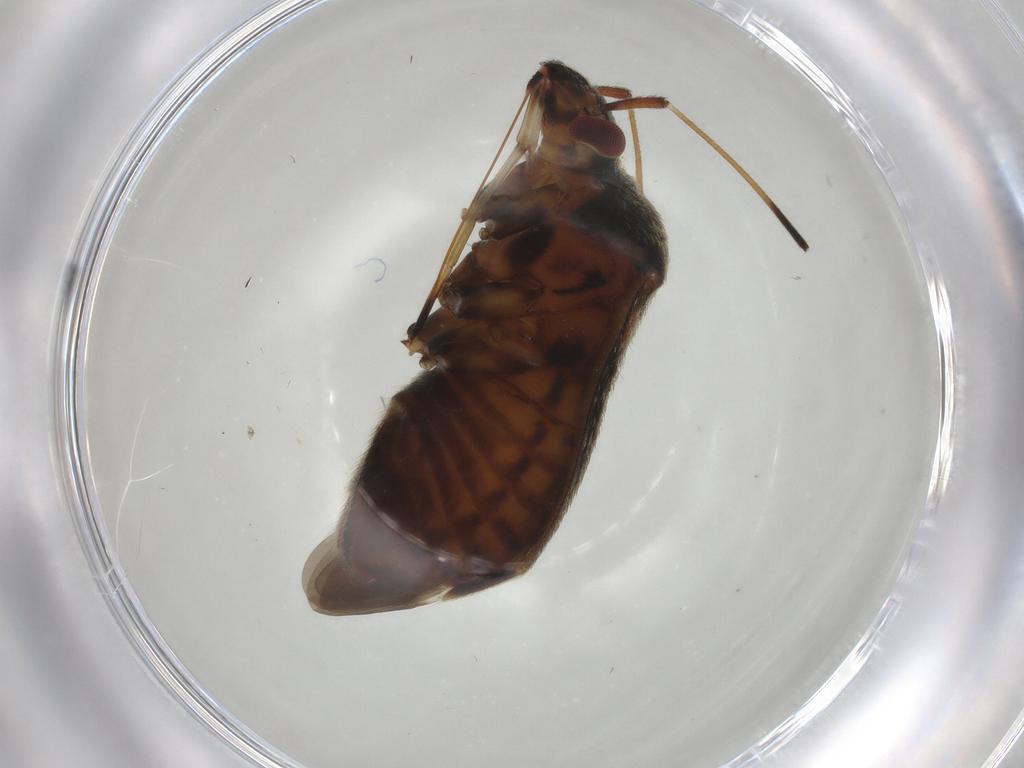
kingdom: Animalia
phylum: Arthropoda
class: Insecta
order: Hemiptera
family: Miridae
